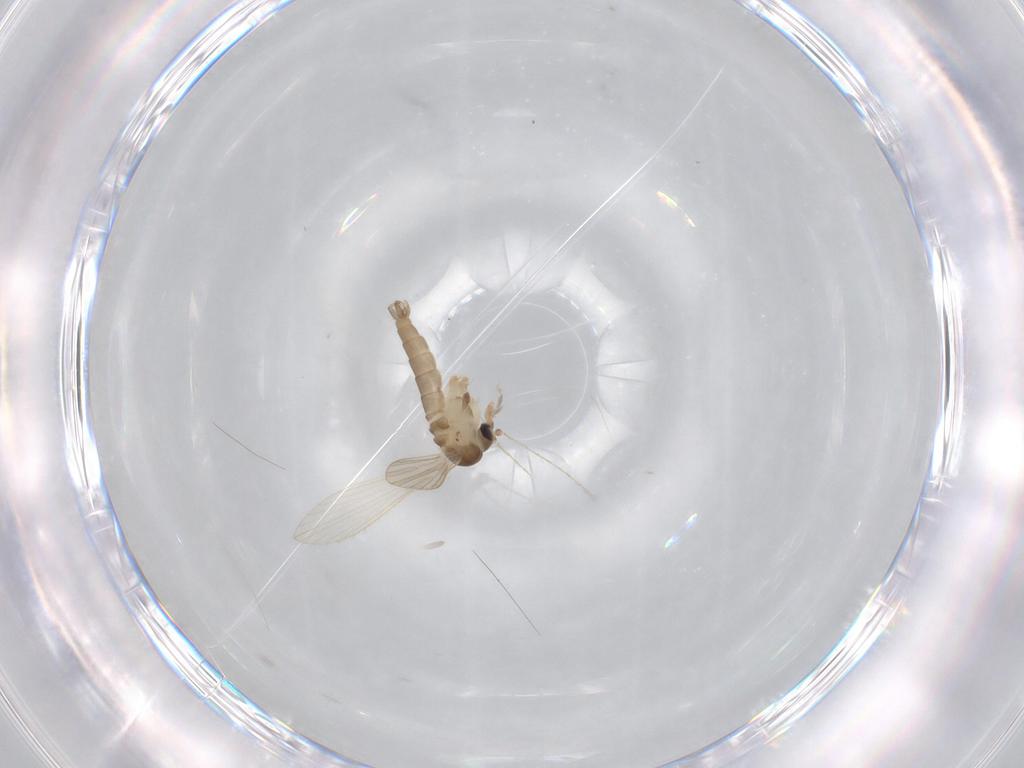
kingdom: Animalia
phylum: Arthropoda
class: Insecta
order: Diptera
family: Psychodidae
